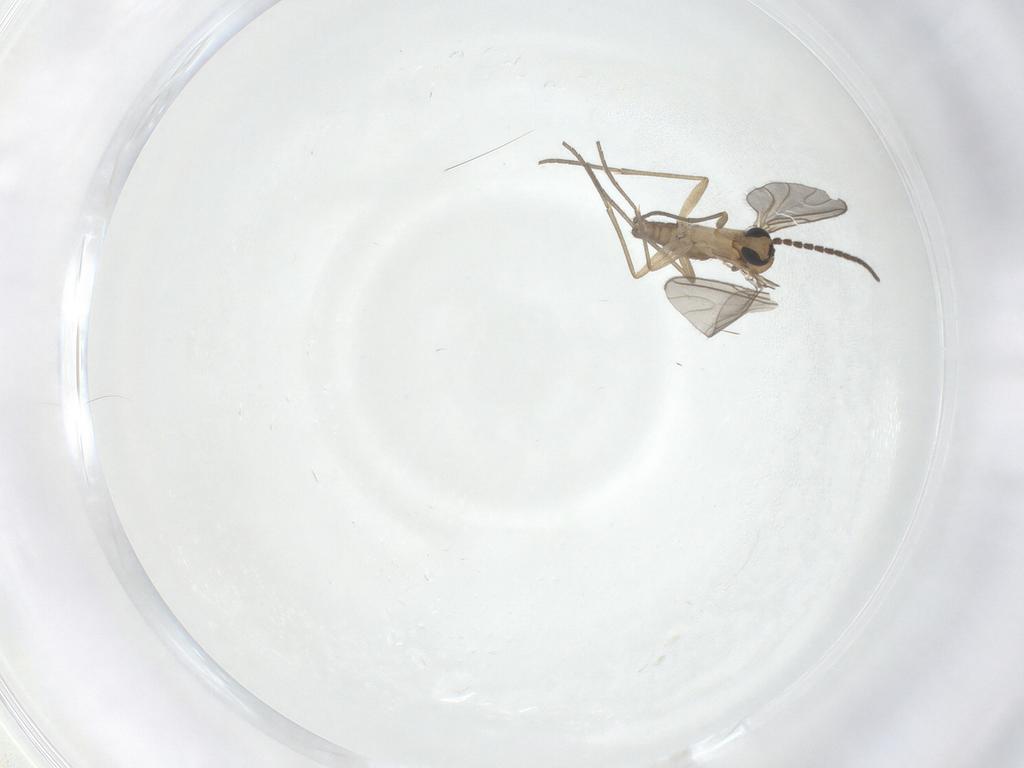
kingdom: Animalia
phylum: Arthropoda
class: Insecta
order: Diptera
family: Sciaridae
